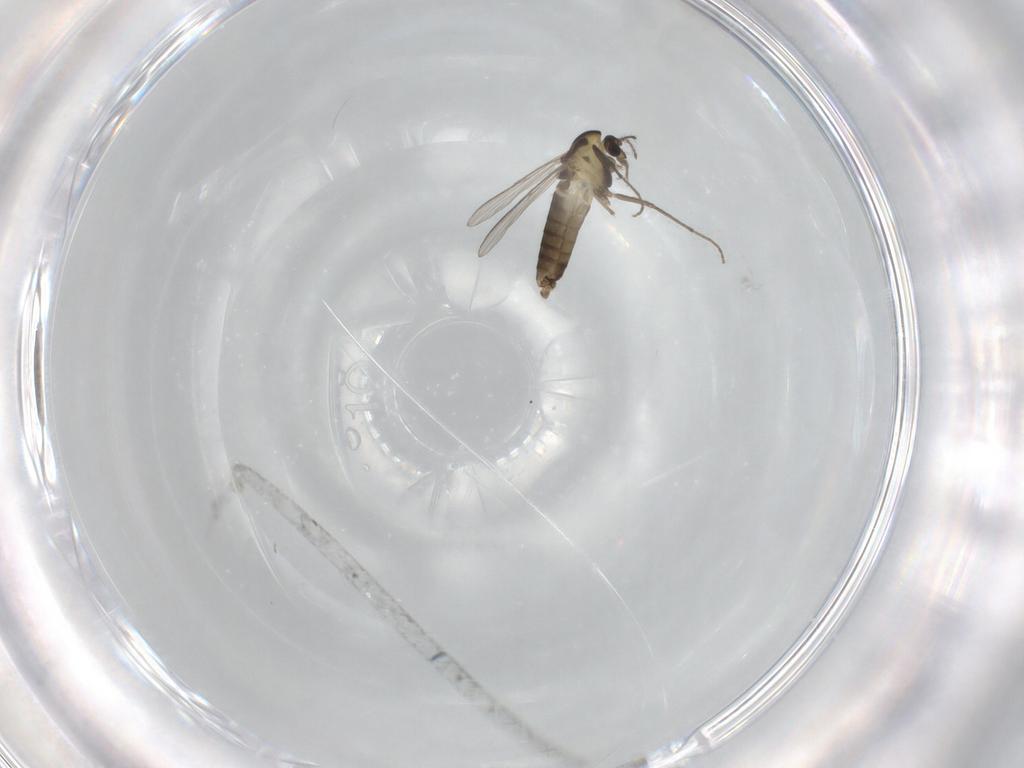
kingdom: Animalia
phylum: Arthropoda
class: Insecta
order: Diptera
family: Chironomidae
